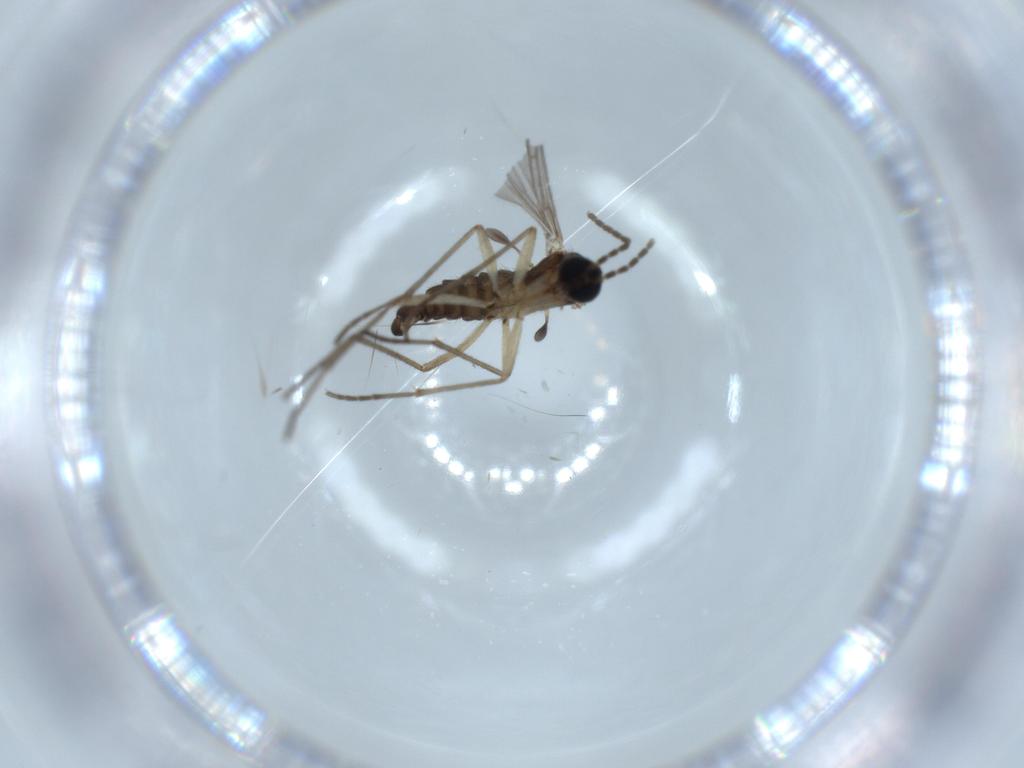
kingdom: Animalia
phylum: Arthropoda
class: Insecta
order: Diptera
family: Sciaridae
